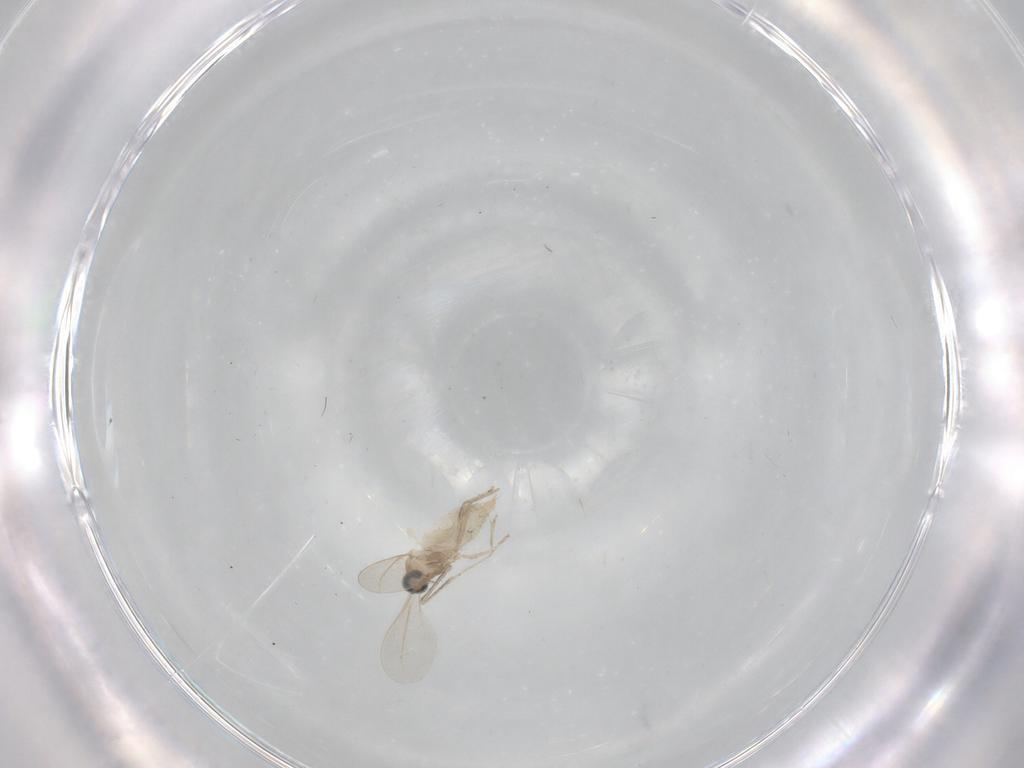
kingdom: Animalia
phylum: Arthropoda
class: Insecta
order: Diptera
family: Cecidomyiidae
